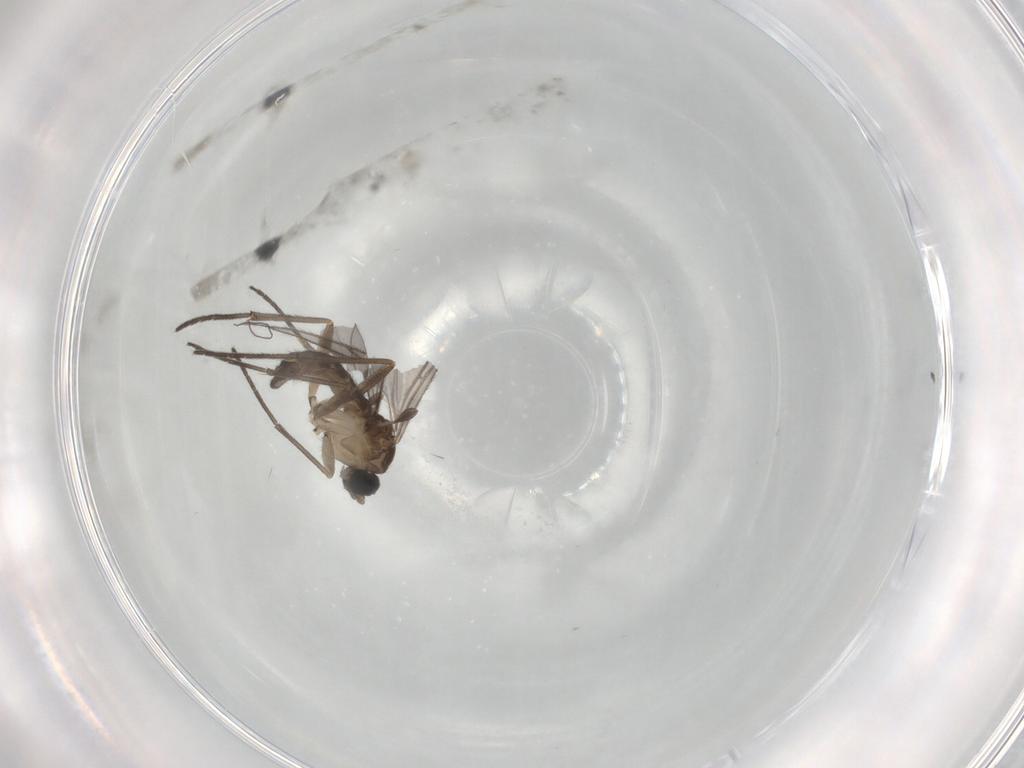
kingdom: Animalia
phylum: Arthropoda
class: Insecta
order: Diptera
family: Sciaridae
